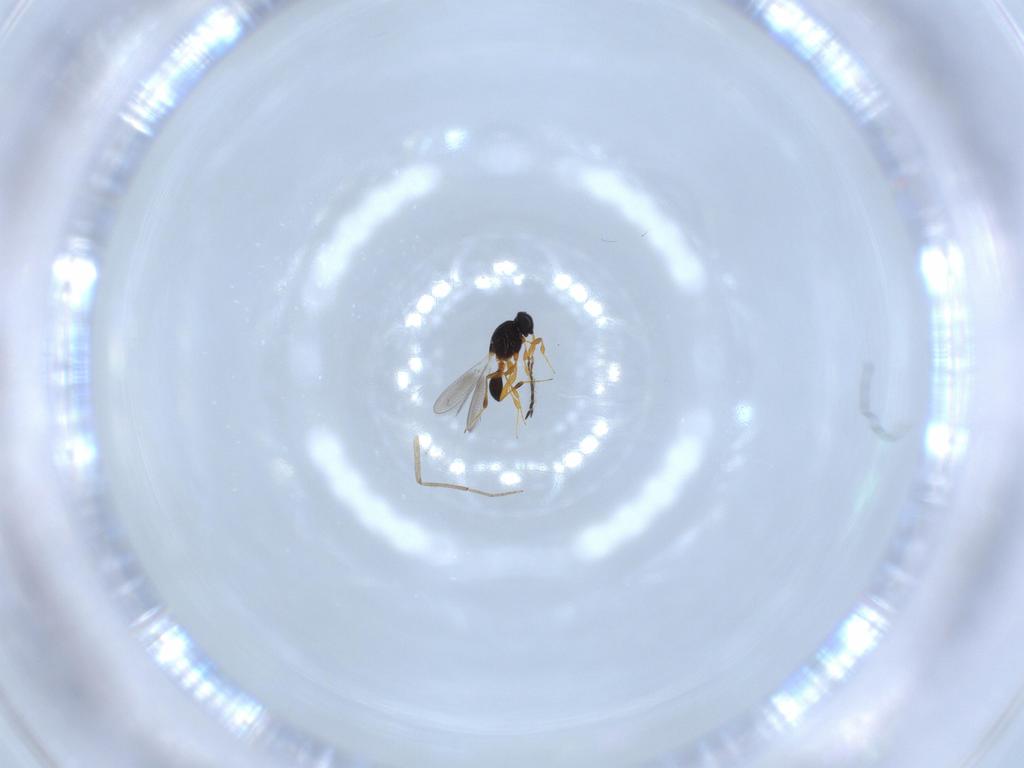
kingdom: Animalia
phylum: Arthropoda
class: Insecta
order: Hymenoptera
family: Platygastridae
